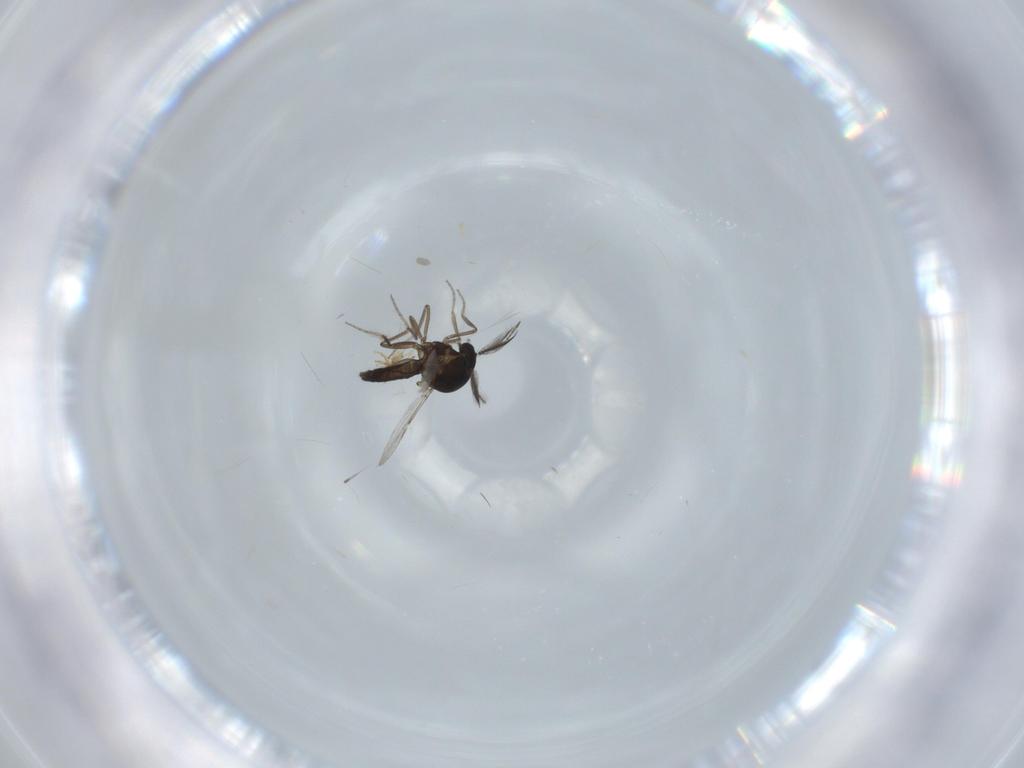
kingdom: Animalia
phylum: Arthropoda
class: Insecta
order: Diptera
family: Ceratopogonidae
